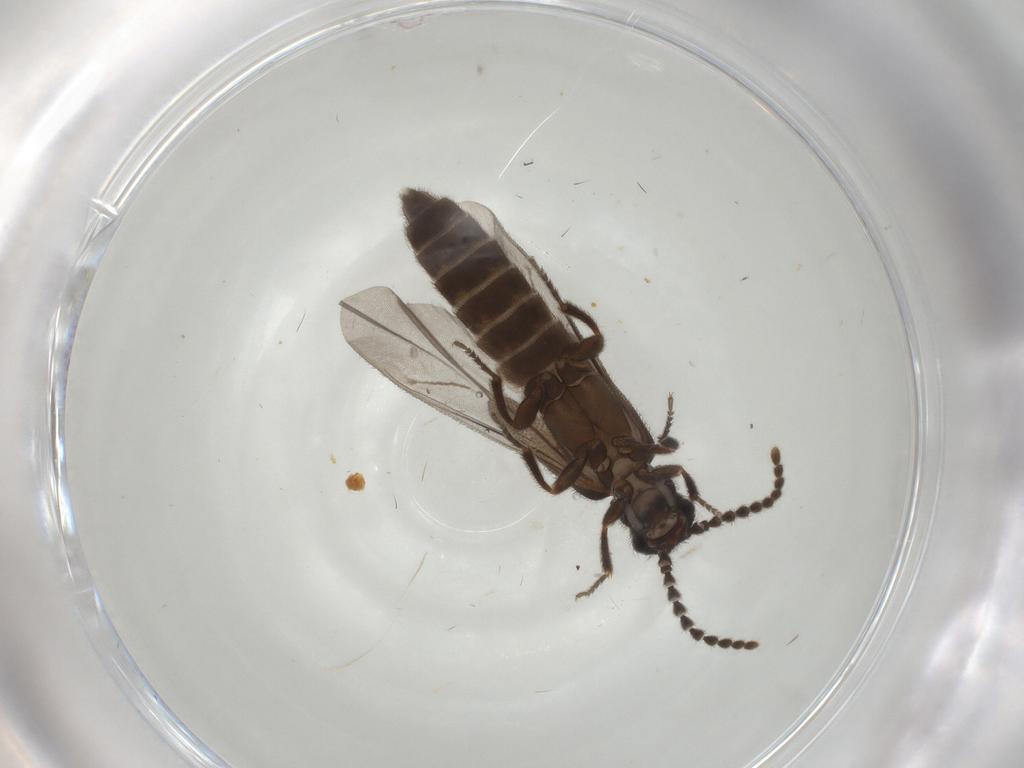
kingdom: Animalia
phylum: Arthropoda
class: Insecta
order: Coleoptera
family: Omethidae
